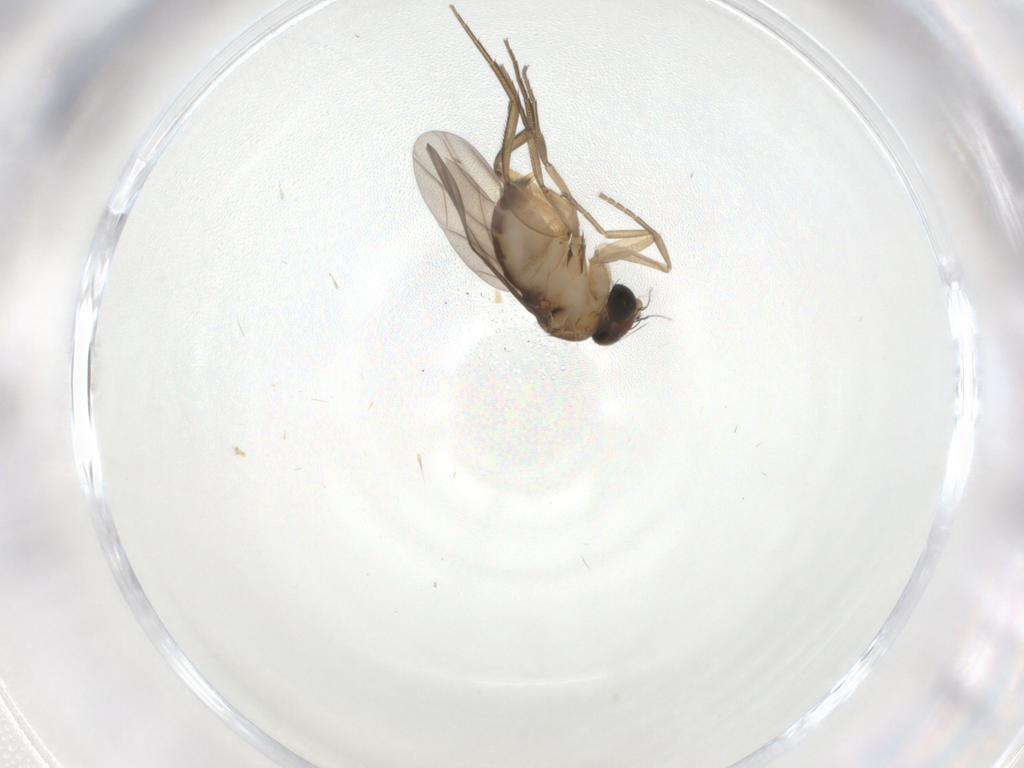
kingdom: Animalia
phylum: Arthropoda
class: Insecta
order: Diptera
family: Phoridae
